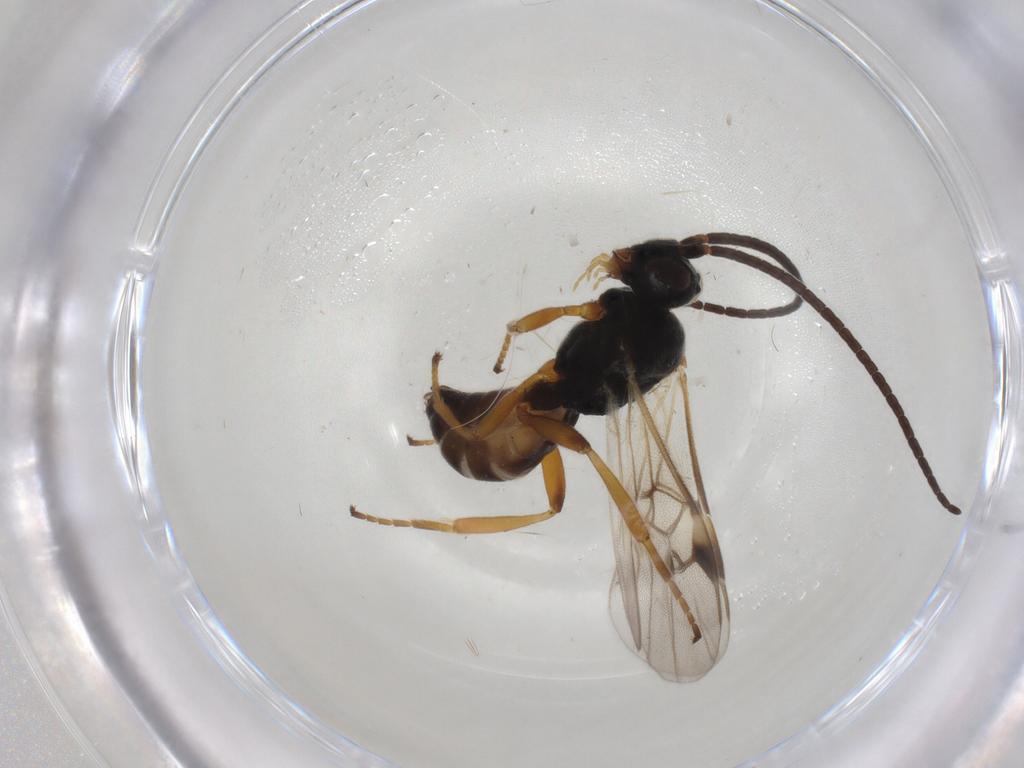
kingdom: Animalia
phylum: Arthropoda
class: Insecta
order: Hymenoptera
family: Braconidae
